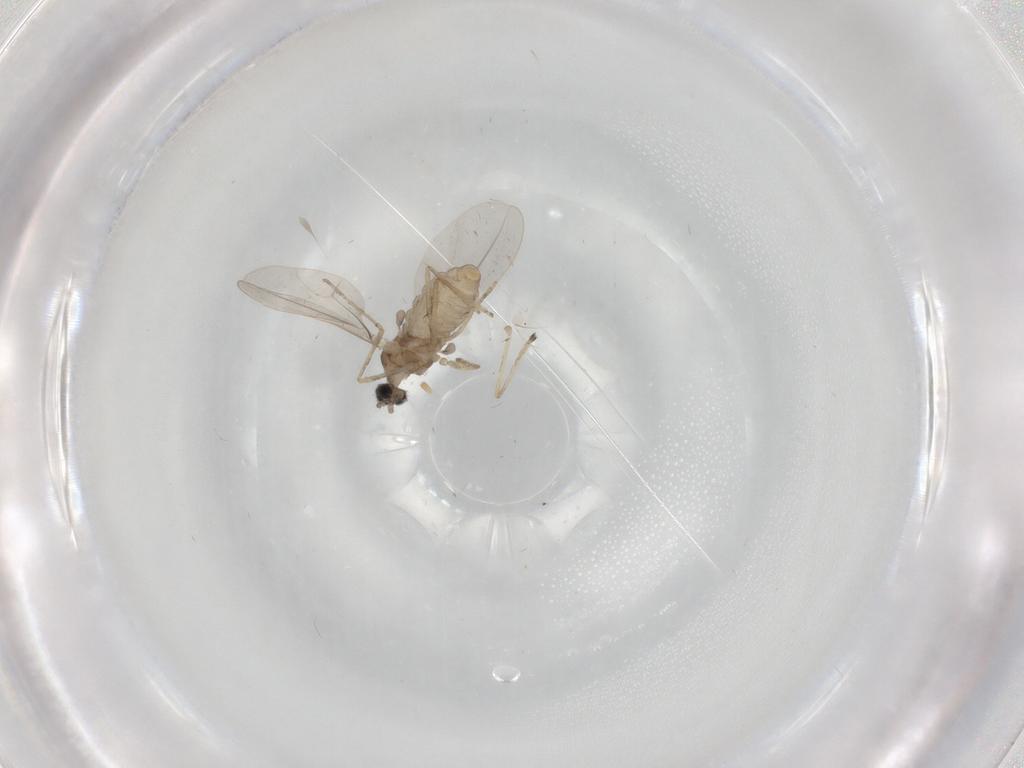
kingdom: Animalia
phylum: Arthropoda
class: Insecta
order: Diptera
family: Cecidomyiidae
